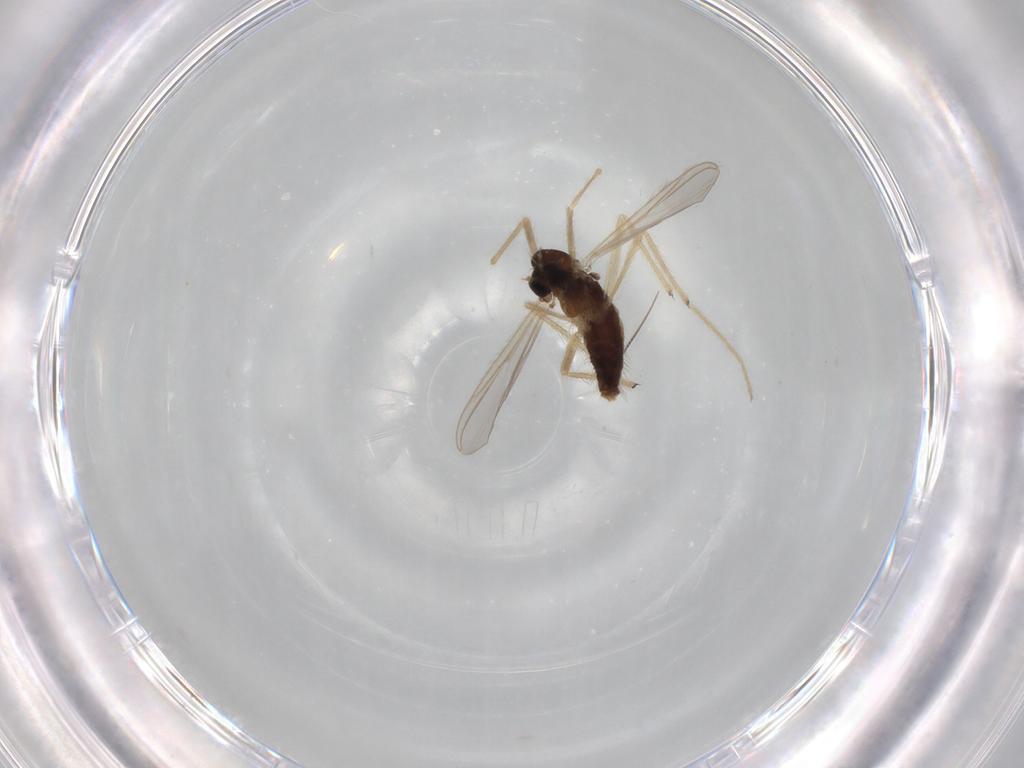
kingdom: Animalia
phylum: Arthropoda
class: Insecta
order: Diptera
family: Chironomidae
